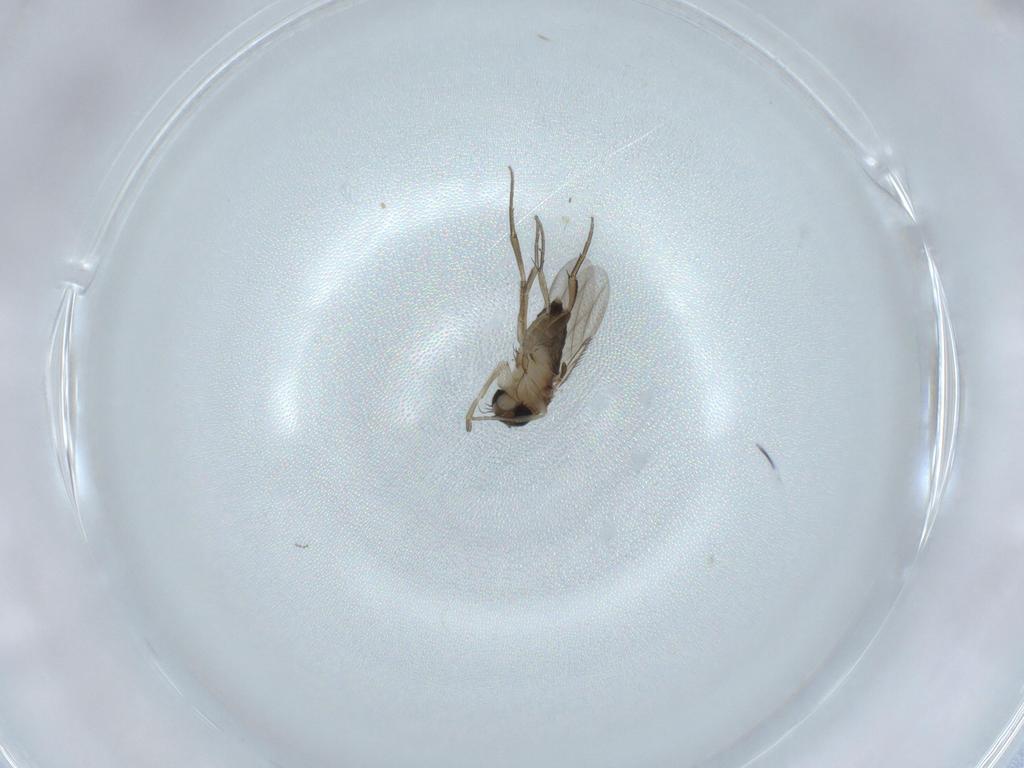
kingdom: Animalia
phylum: Arthropoda
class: Insecta
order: Diptera
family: Phoridae
